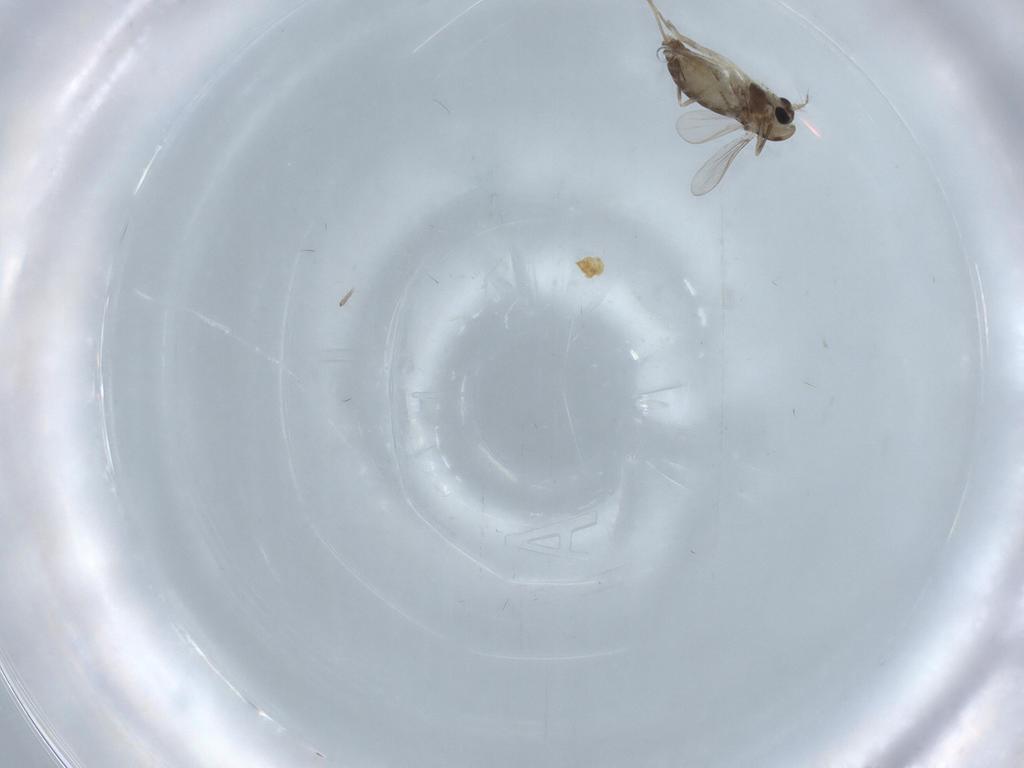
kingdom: Animalia
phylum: Arthropoda
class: Insecta
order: Diptera
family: Chironomidae
